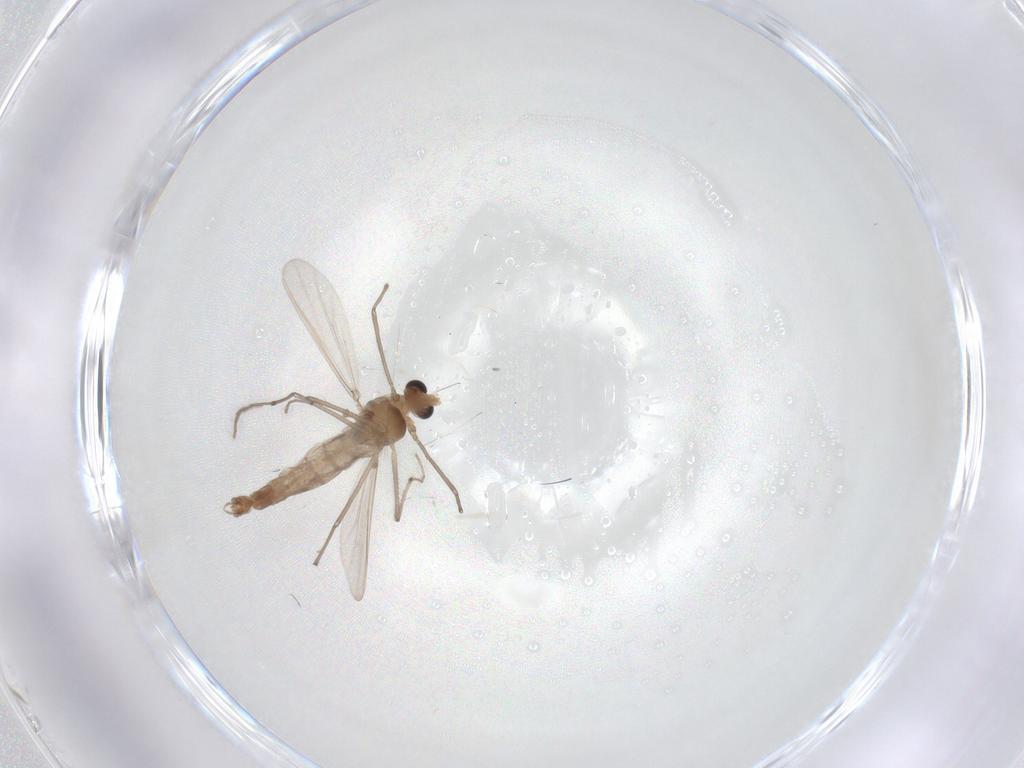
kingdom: Animalia
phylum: Arthropoda
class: Insecta
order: Diptera
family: Chironomidae
